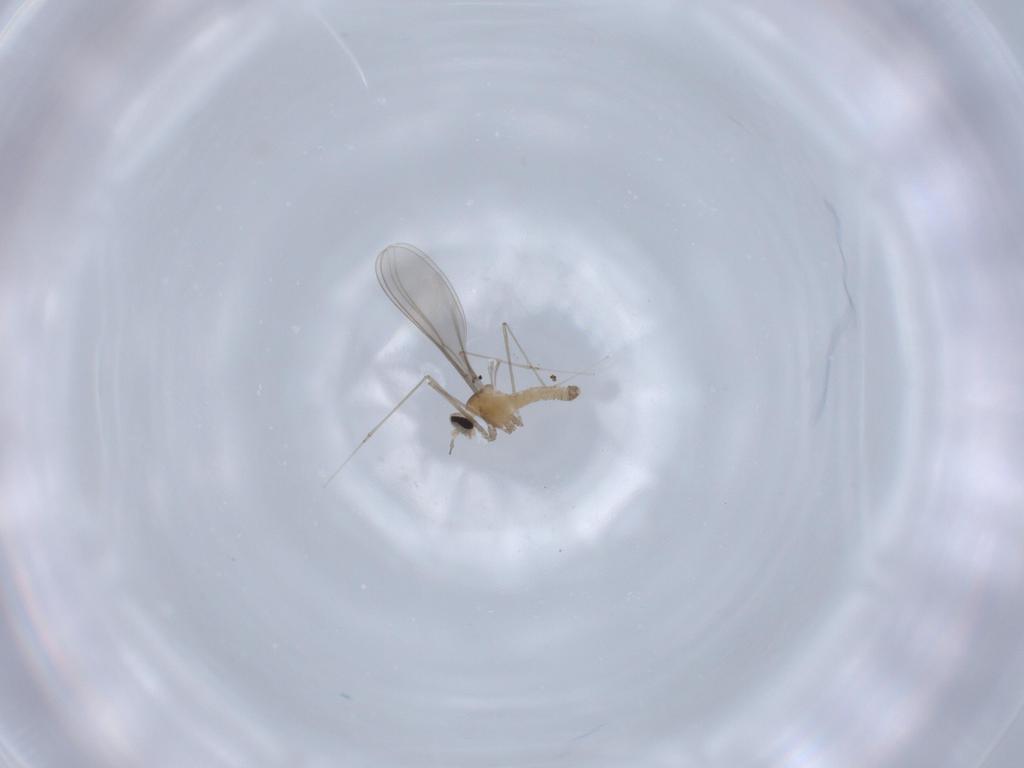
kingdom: Animalia
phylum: Arthropoda
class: Insecta
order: Diptera
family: Cecidomyiidae
